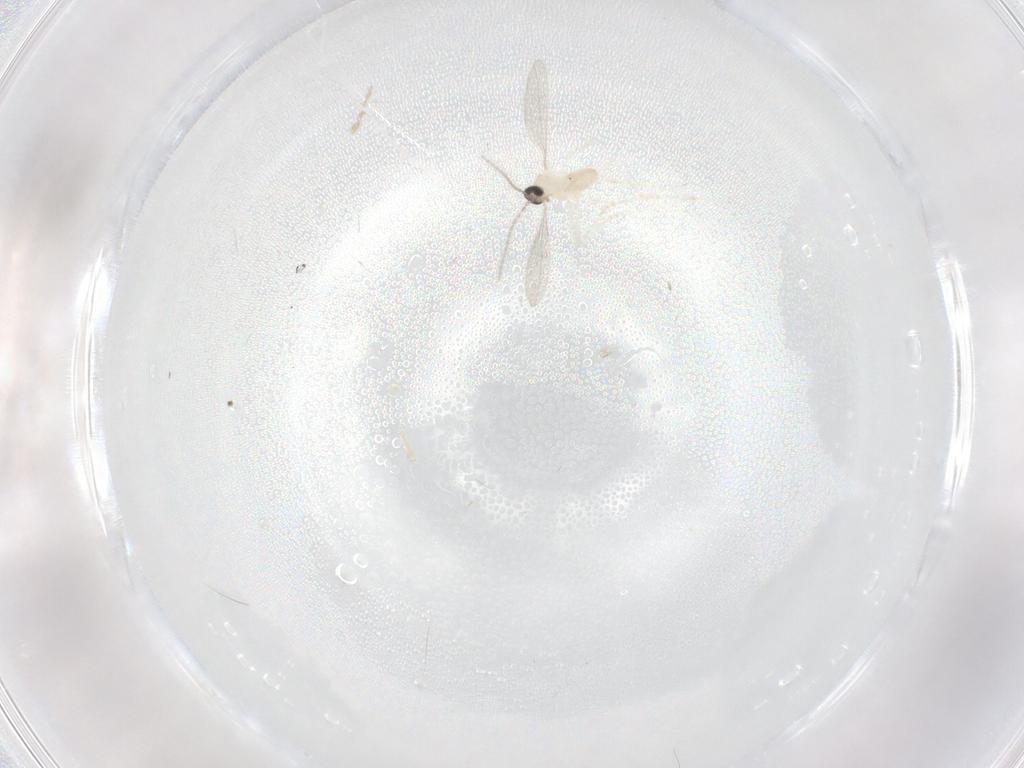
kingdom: Animalia
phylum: Arthropoda
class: Insecta
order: Diptera
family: Cecidomyiidae
